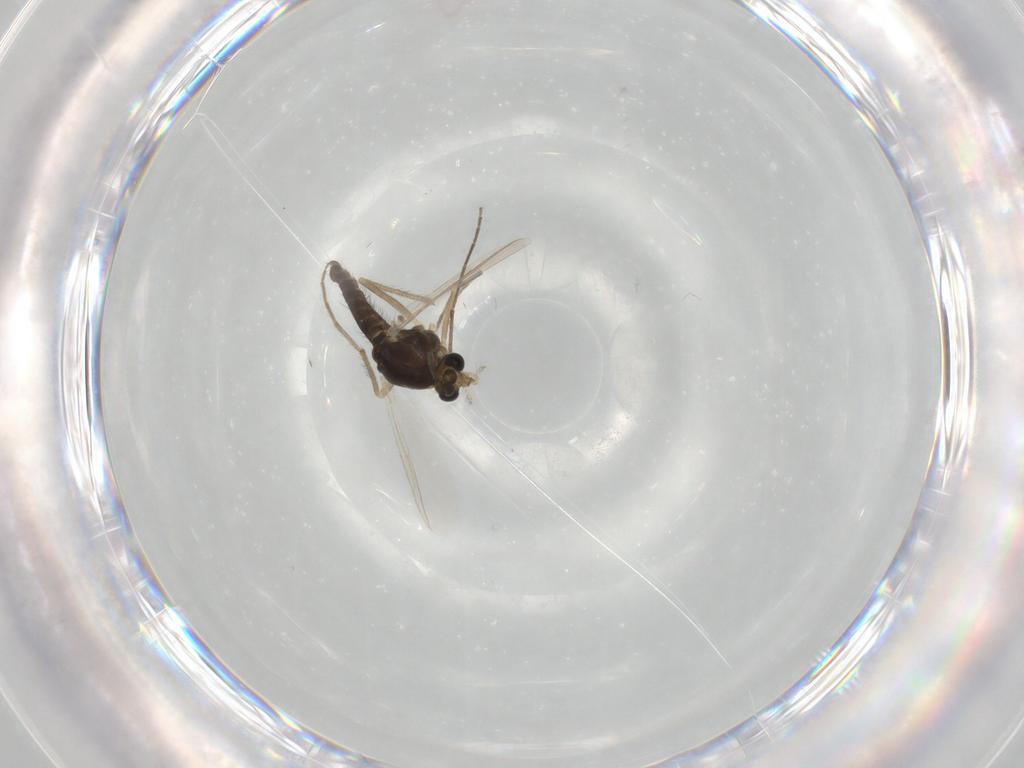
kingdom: Animalia
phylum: Arthropoda
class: Insecta
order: Diptera
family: Chironomidae
